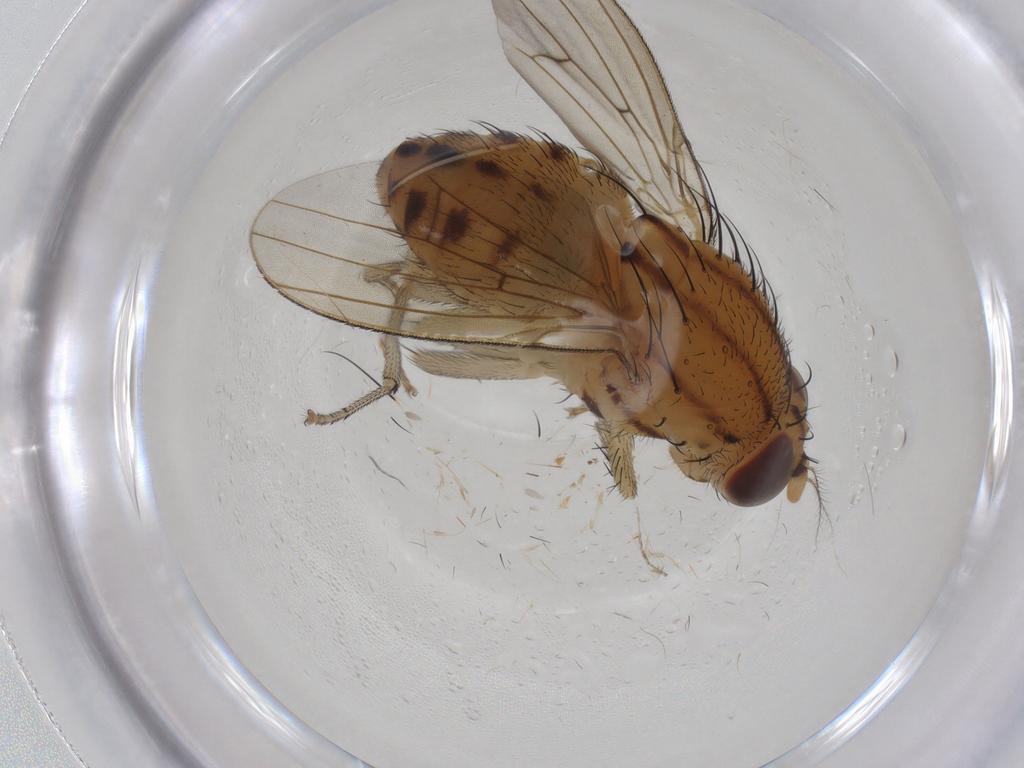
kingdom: Animalia
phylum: Arthropoda
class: Insecta
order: Diptera
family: Lauxaniidae
